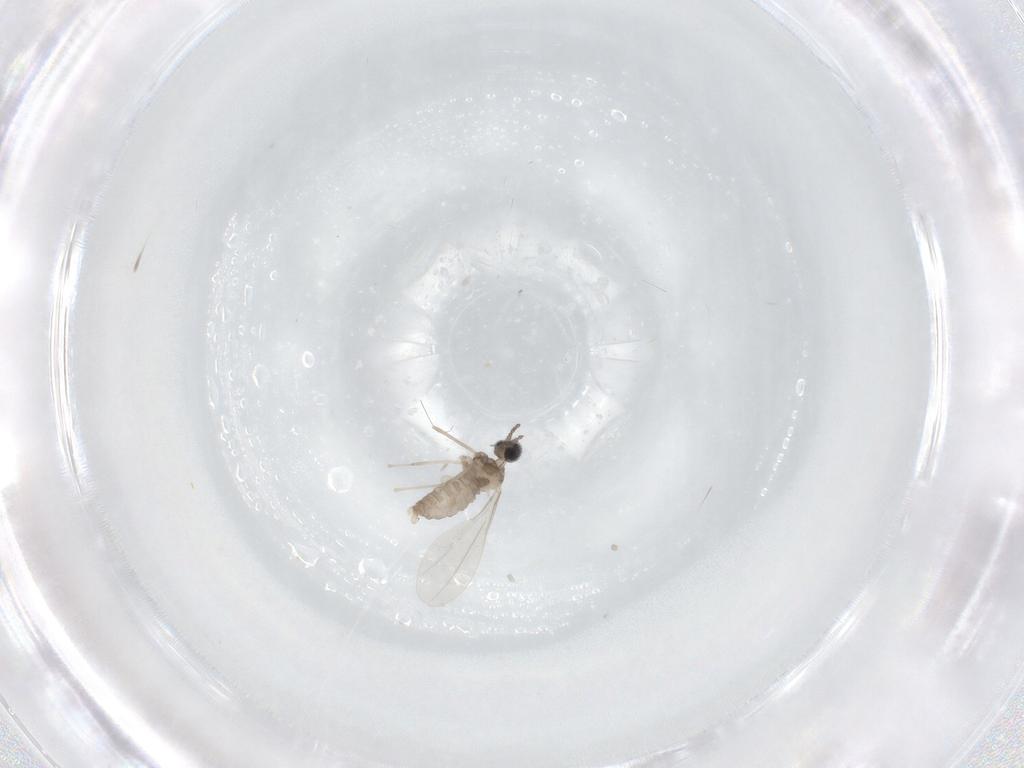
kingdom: Animalia
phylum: Arthropoda
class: Insecta
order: Diptera
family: Cecidomyiidae
